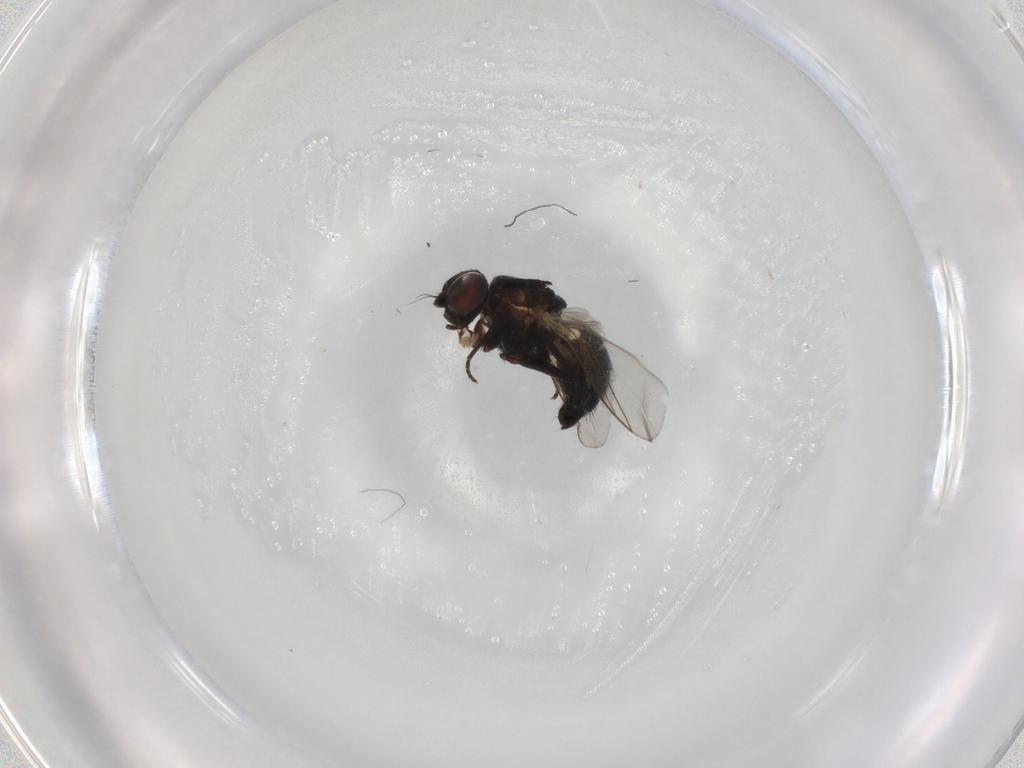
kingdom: Animalia
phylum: Arthropoda
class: Insecta
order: Diptera
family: Agromyzidae
